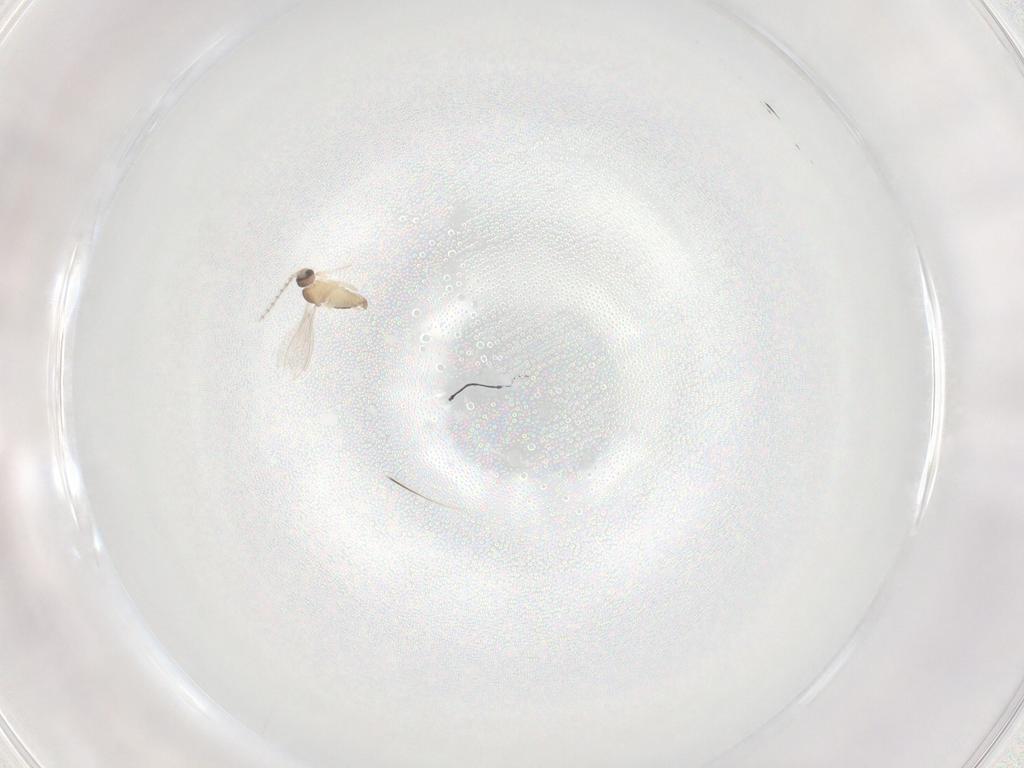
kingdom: Animalia
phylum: Arthropoda
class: Insecta
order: Diptera
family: Cecidomyiidae
